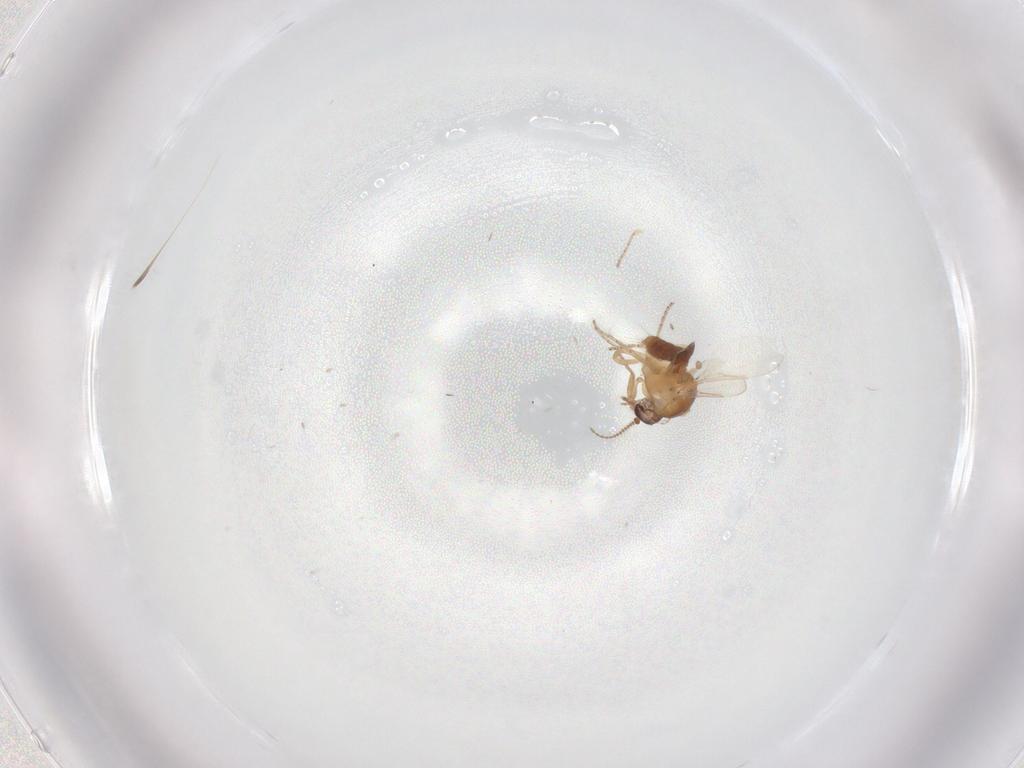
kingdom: Animalia
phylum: Arthropoda
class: Insecta
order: Diptera
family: Ceratopogonidae
